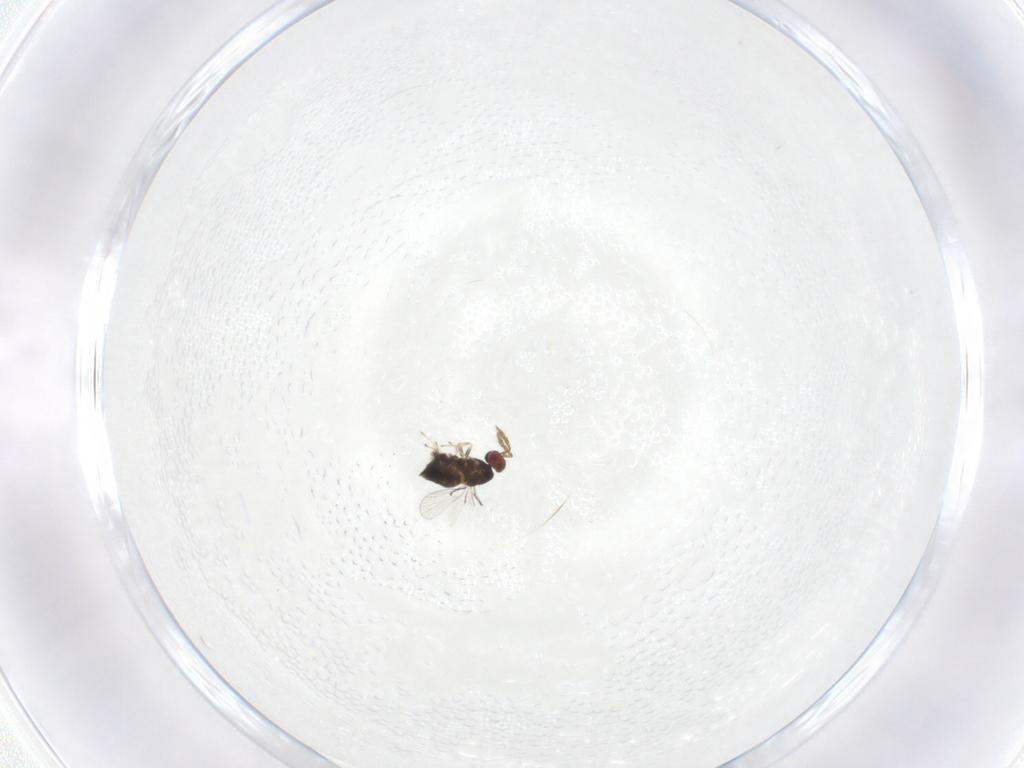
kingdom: Animalia
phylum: Arthropoda
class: Insecta
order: Hymenoptera
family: Trichogrammatidae
